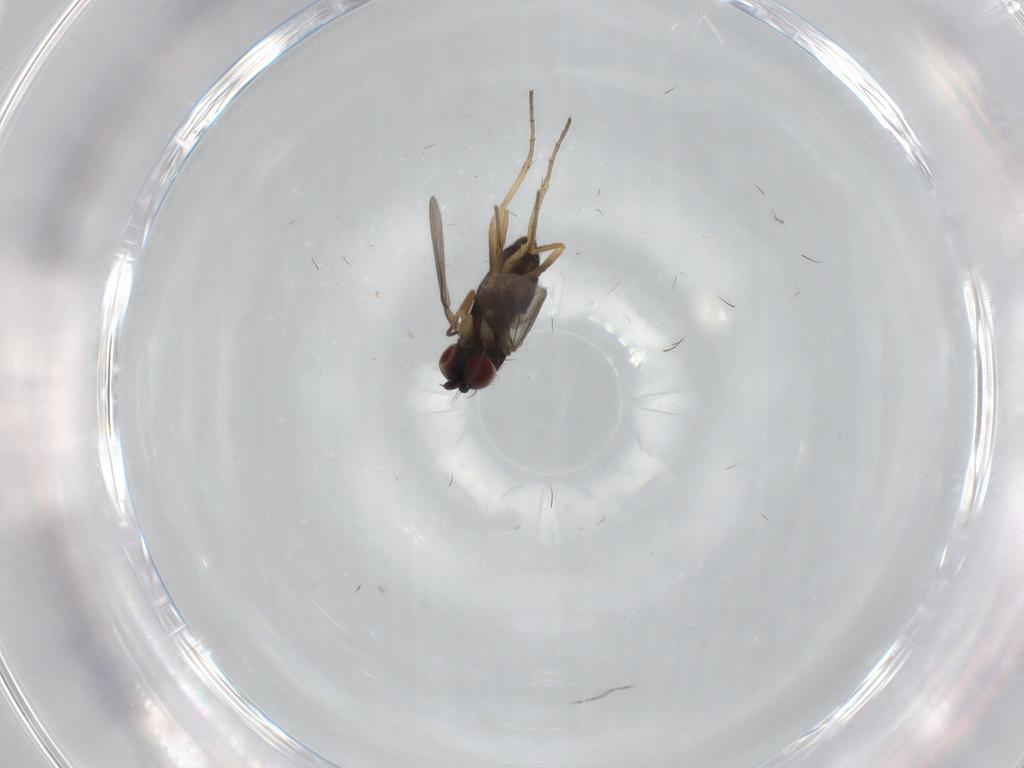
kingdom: Animalia
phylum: Arthropoda
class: Insecta
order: Diptera
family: Dolichopodidae
